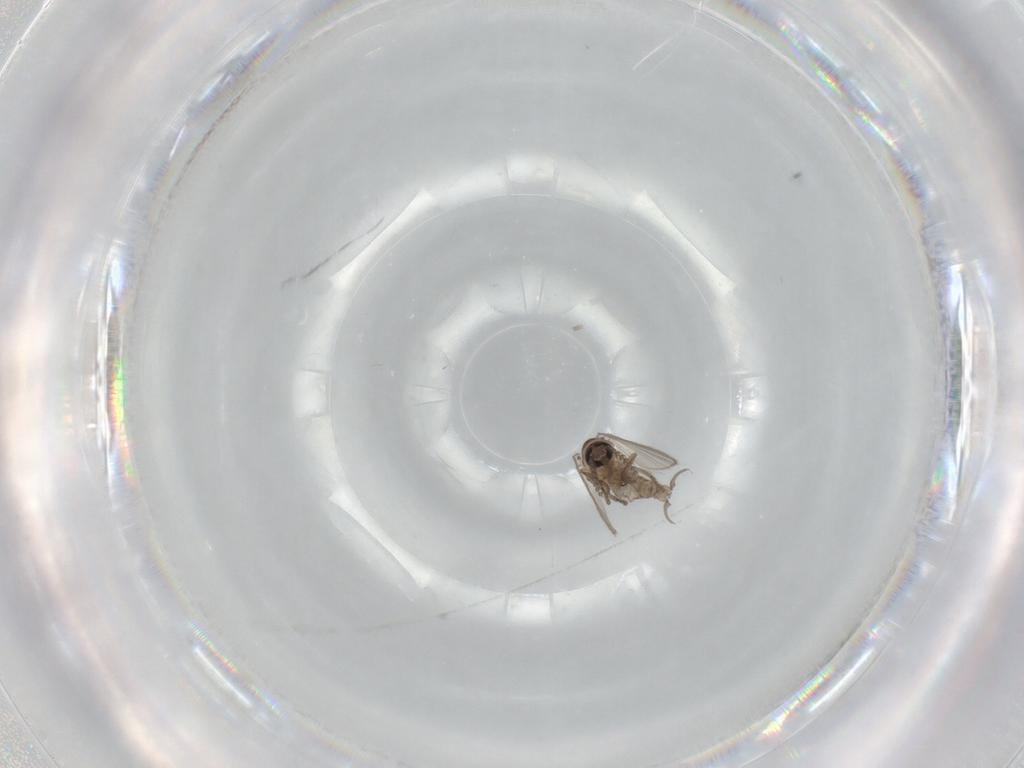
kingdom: Animalia
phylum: Arthropoda
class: Insecta
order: Diptera
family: Psychodidae
